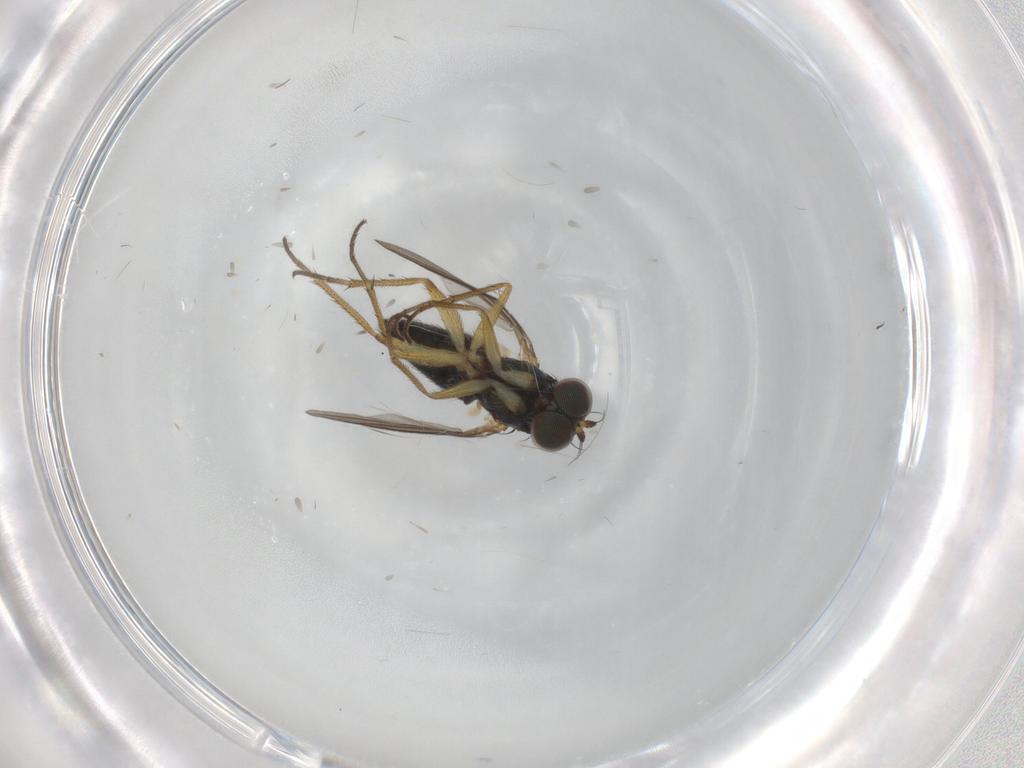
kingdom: Animalia
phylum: Arthropoda
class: Insecta
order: Diptera
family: Dolichopodidae
